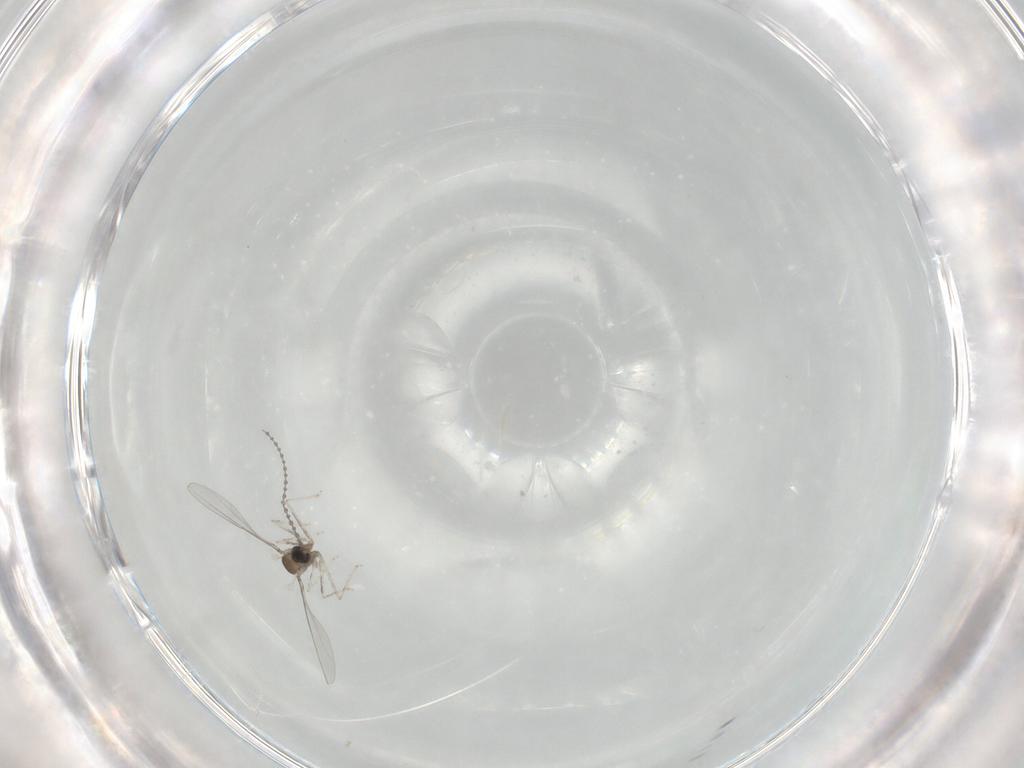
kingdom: Animalia
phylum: Arthropoda
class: Insecta
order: Diptera
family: Cecidomyiidae
